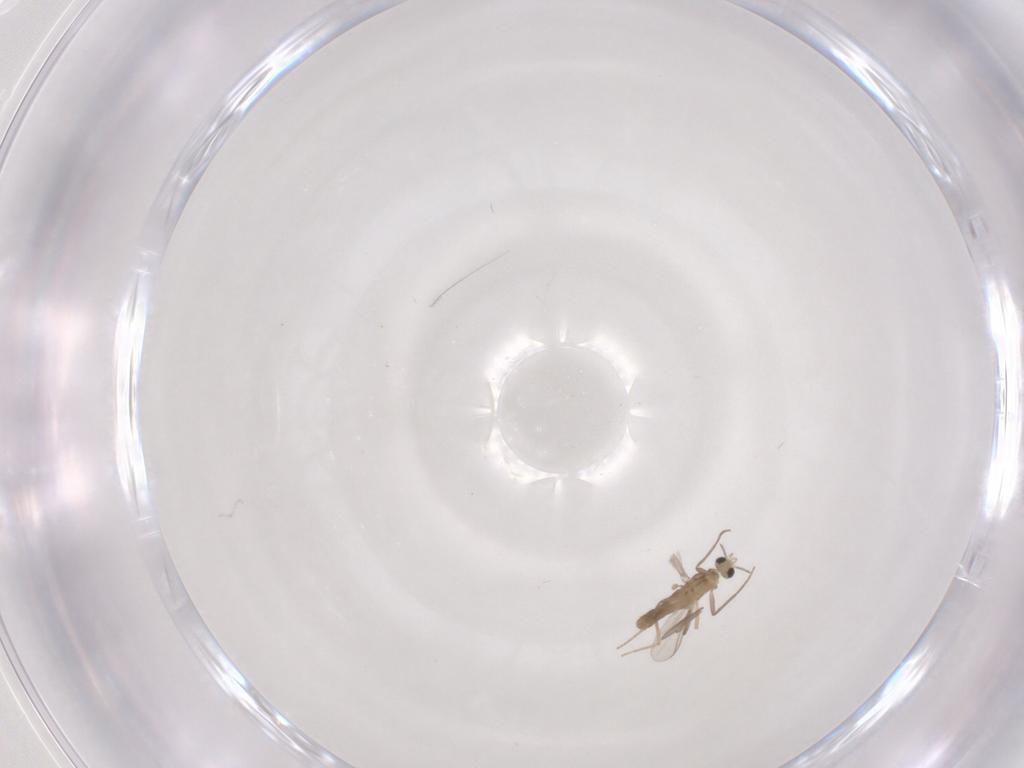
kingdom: Animalia
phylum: Arthropoda
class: Insecta
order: Diptera
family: Chironomidae
